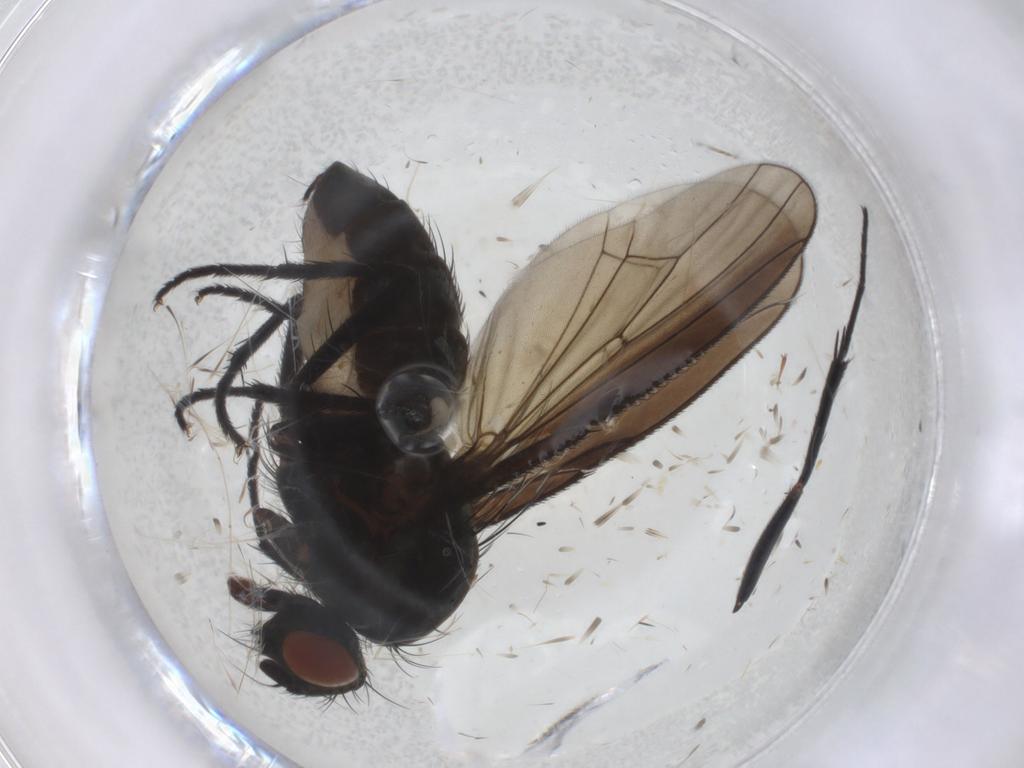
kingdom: Animalia
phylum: Arthropoda
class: Insecta
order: Diptera
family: Anthomyiidae
